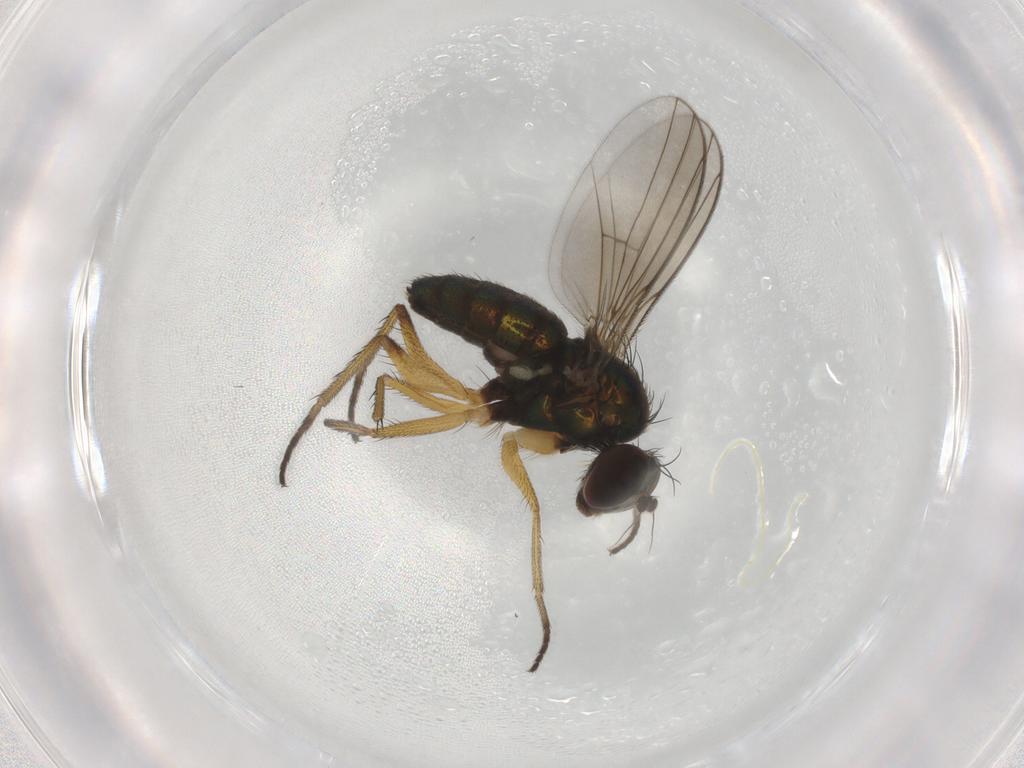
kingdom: Animalia
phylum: Arthropoda
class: Insecta
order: Diptera
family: Dolichopodidae
